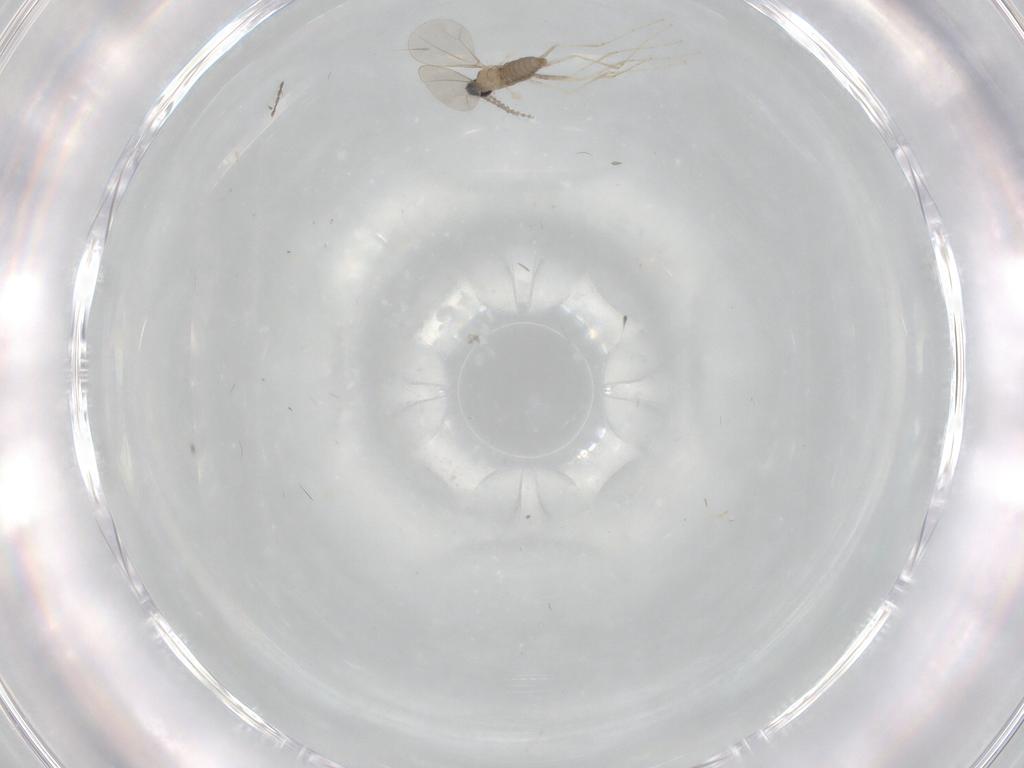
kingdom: Animalia
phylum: Arthropoda
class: Insecta
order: Diptera
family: Cecidomyiidae
